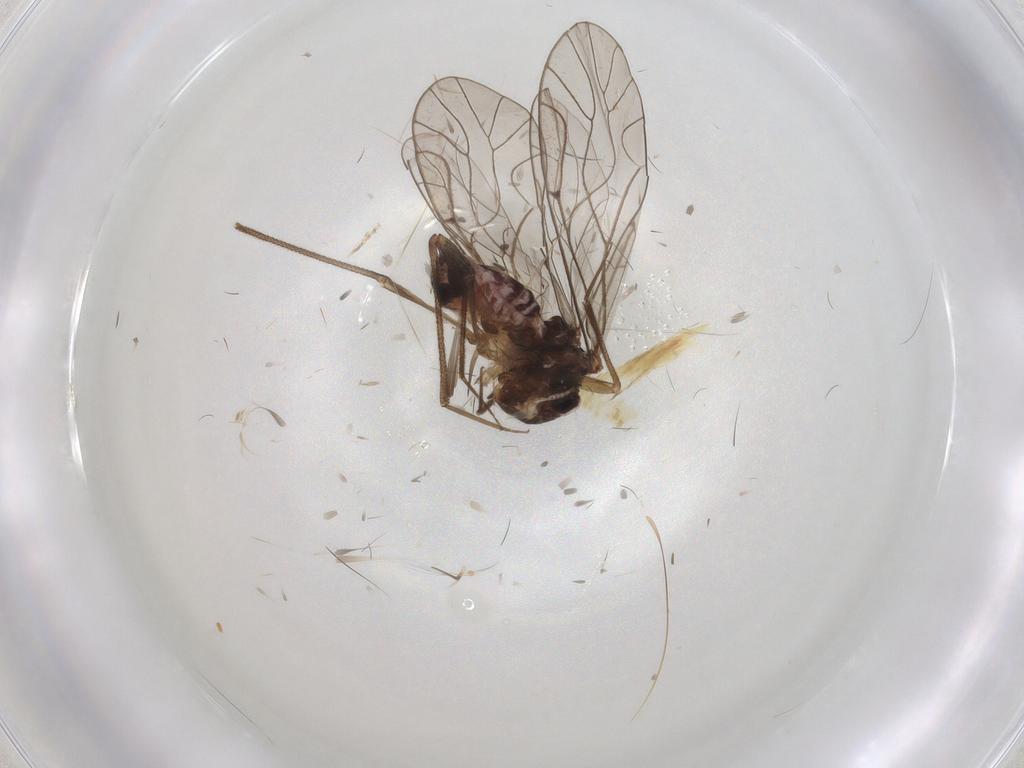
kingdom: Animalia
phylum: Arthropoda
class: Insecta
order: Psocodea
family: Lachesillidae
